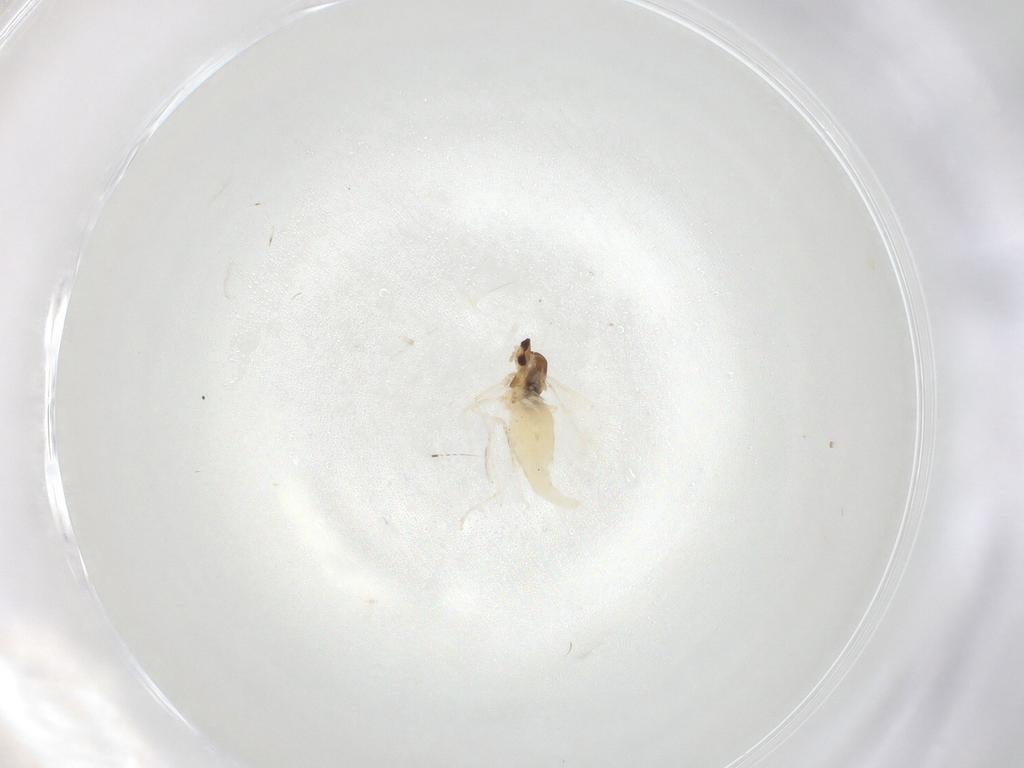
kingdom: Animalia
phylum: Arthropoda
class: Insecta
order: Diptera
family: Cecidomyiidae
